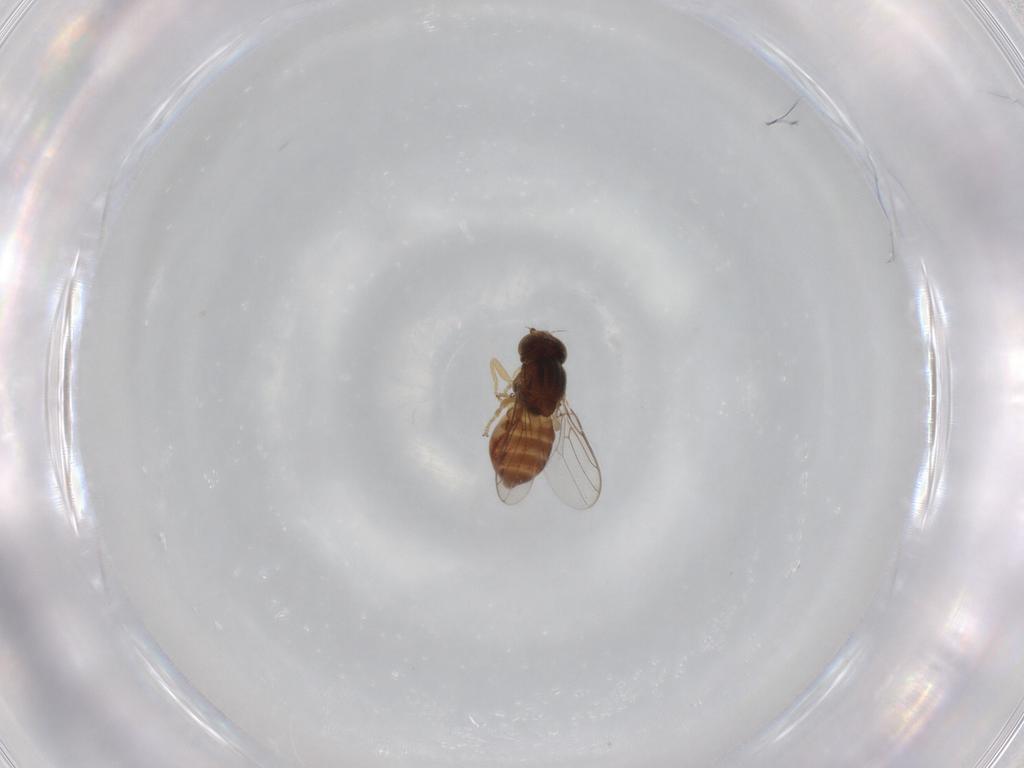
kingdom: Animalia
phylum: Arthropoda
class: Insecta
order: Diptera
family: Chloropidae
